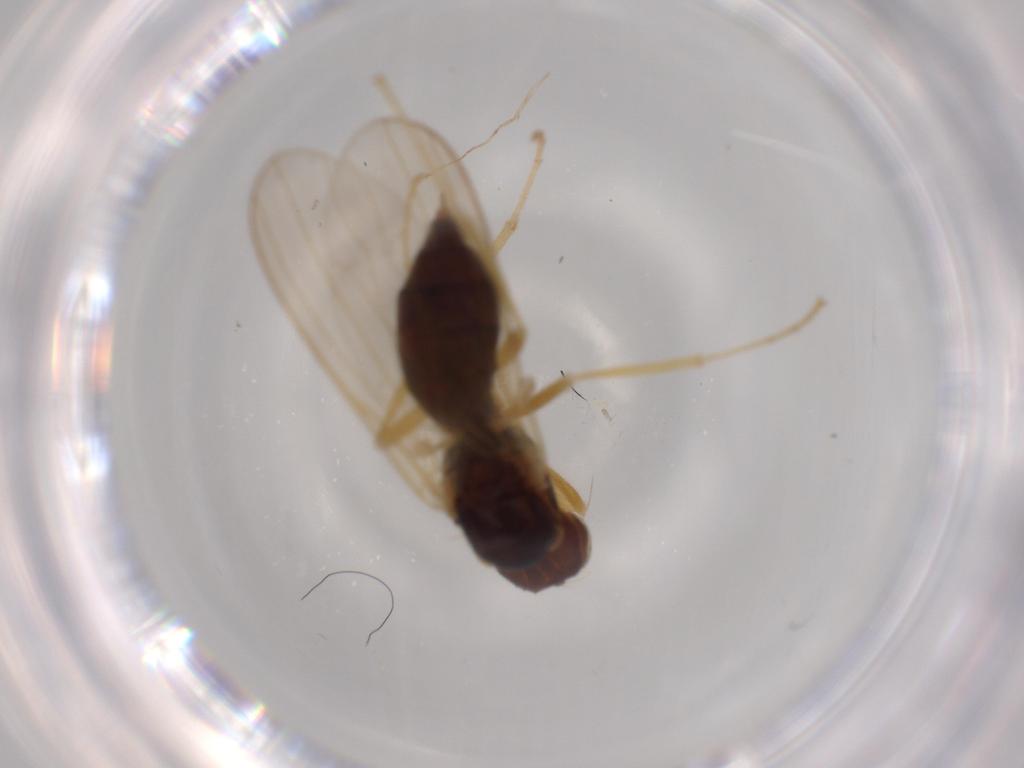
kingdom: Animalia
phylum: Arthropoda
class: Insecta
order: Diptera
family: Psilidae
